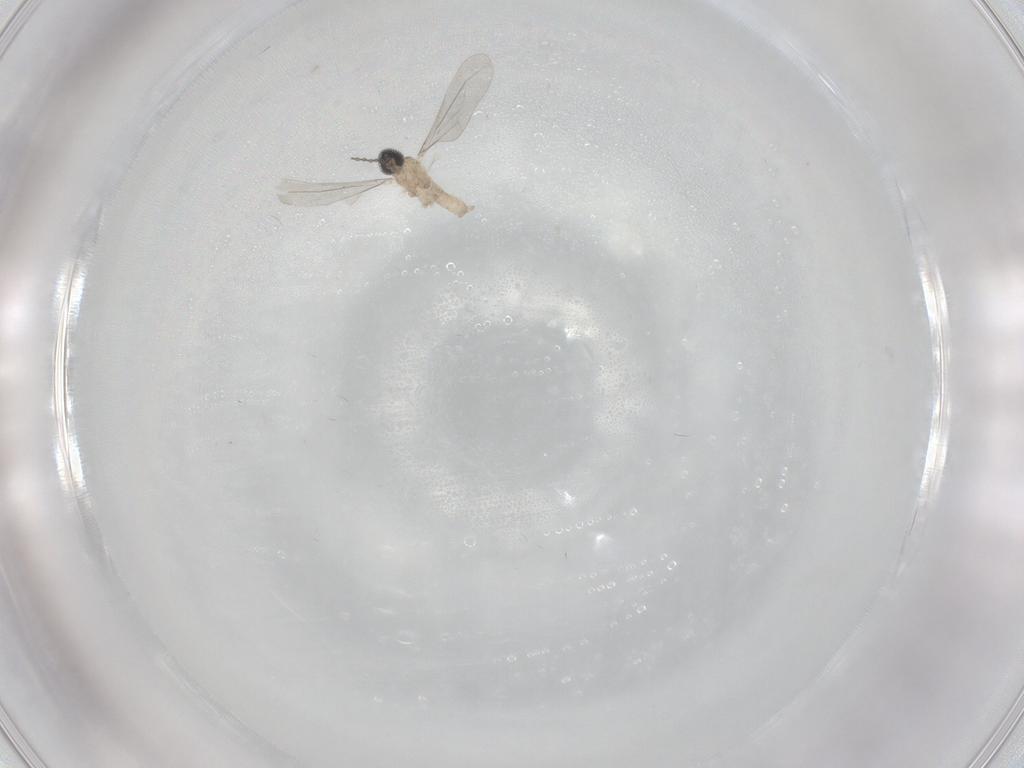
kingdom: Animalia
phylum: Arthropoda
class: Insecta
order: Diptera
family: Cecidomyiidae
